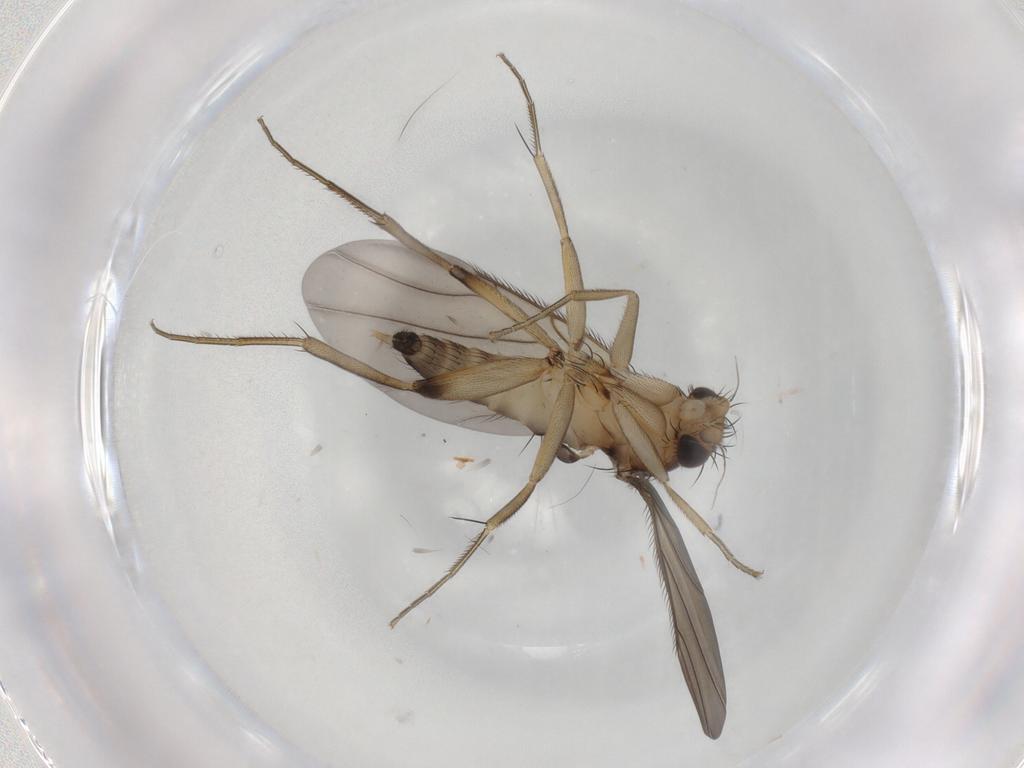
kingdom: Animalia
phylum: Arthropoda
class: Insecta
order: Diptera
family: Phoridae
